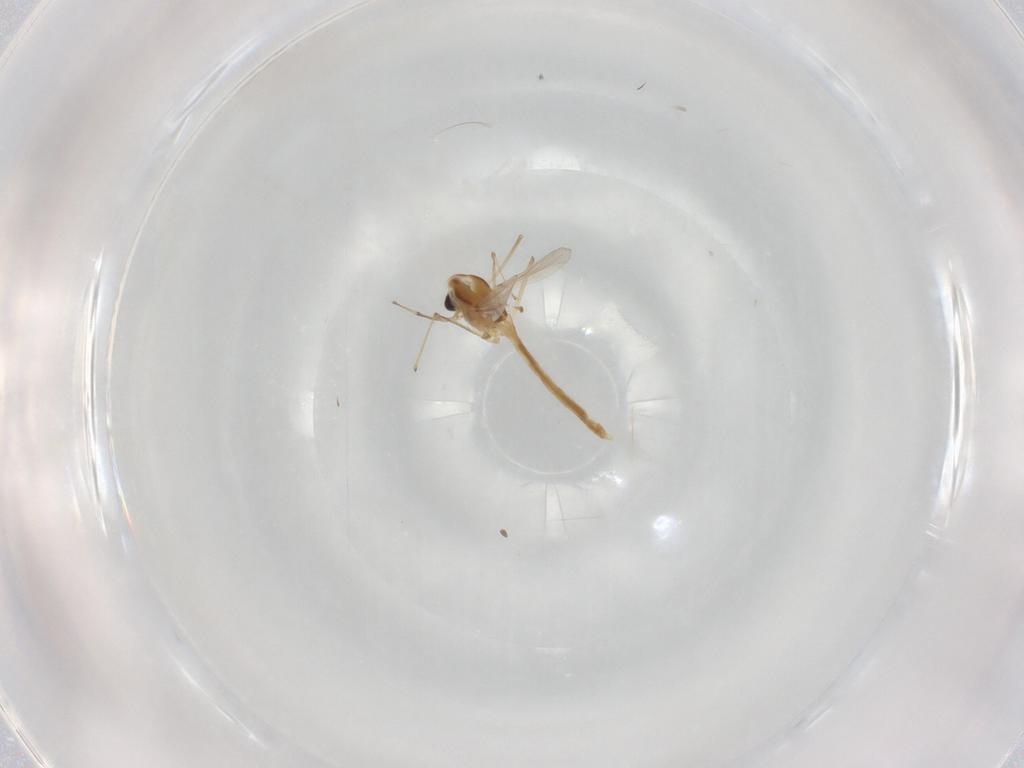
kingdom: Animalia
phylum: Arthropoda
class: Insecta
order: Diptera
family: Chironomidae
